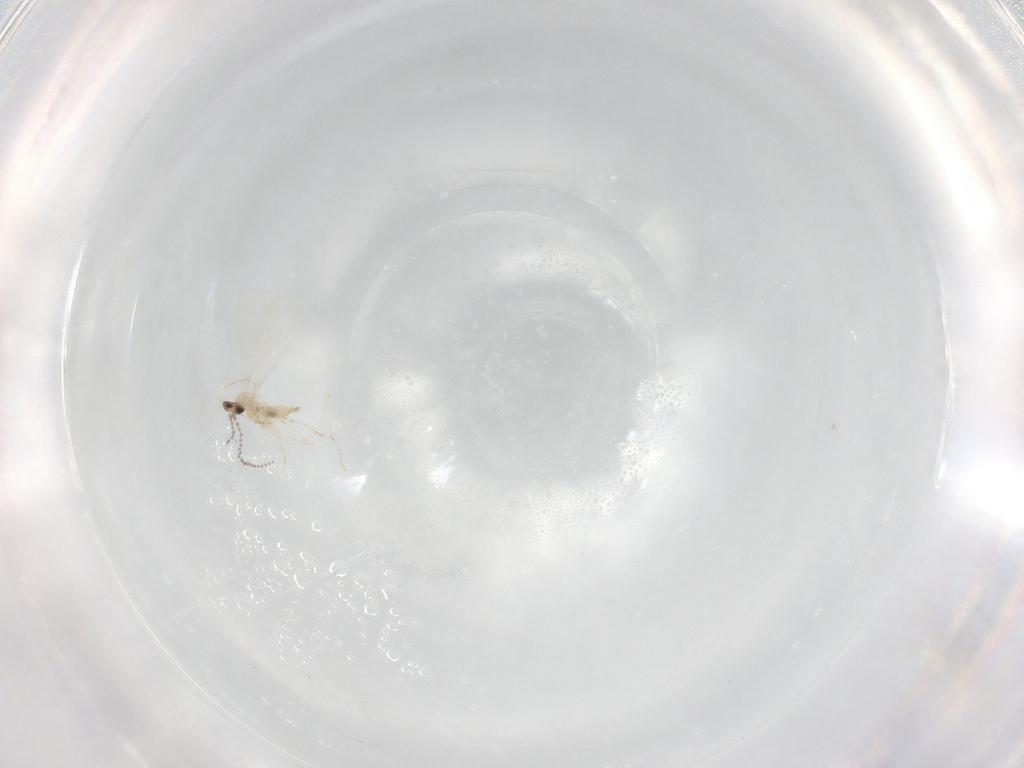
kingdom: Animalia
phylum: Arthropoda
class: Insecta
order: Diptera
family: Cecidomyiidae
